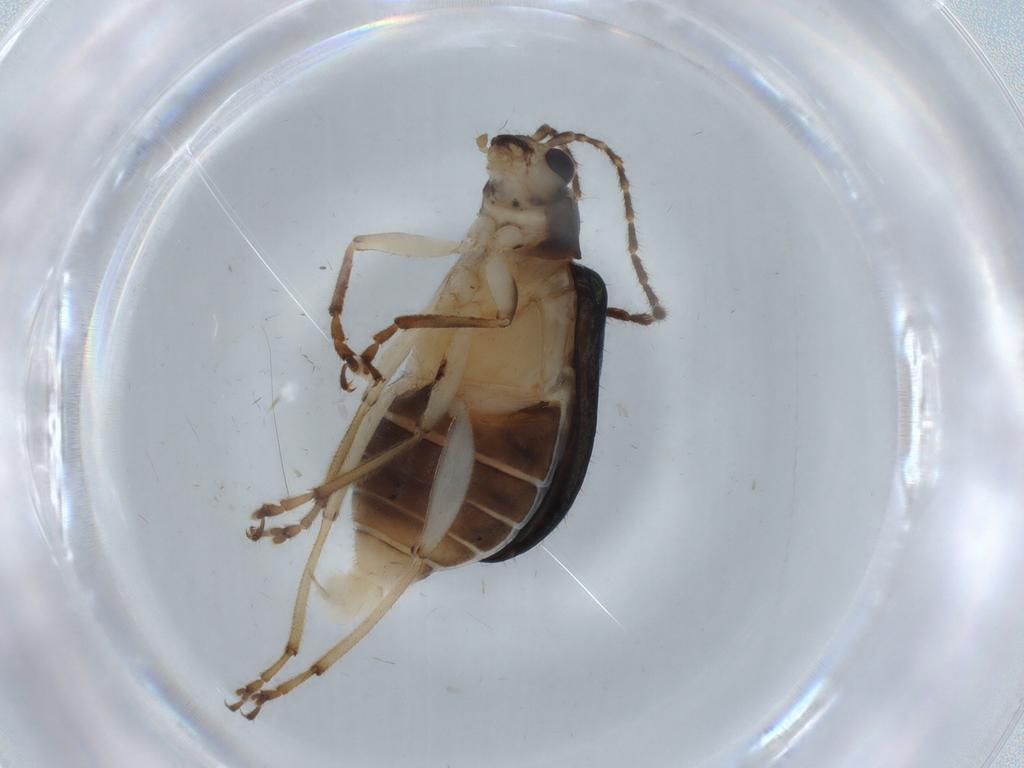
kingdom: Animalia
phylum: Arthropoda
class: Insecta
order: Coleoptera
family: Chrysomelidae
